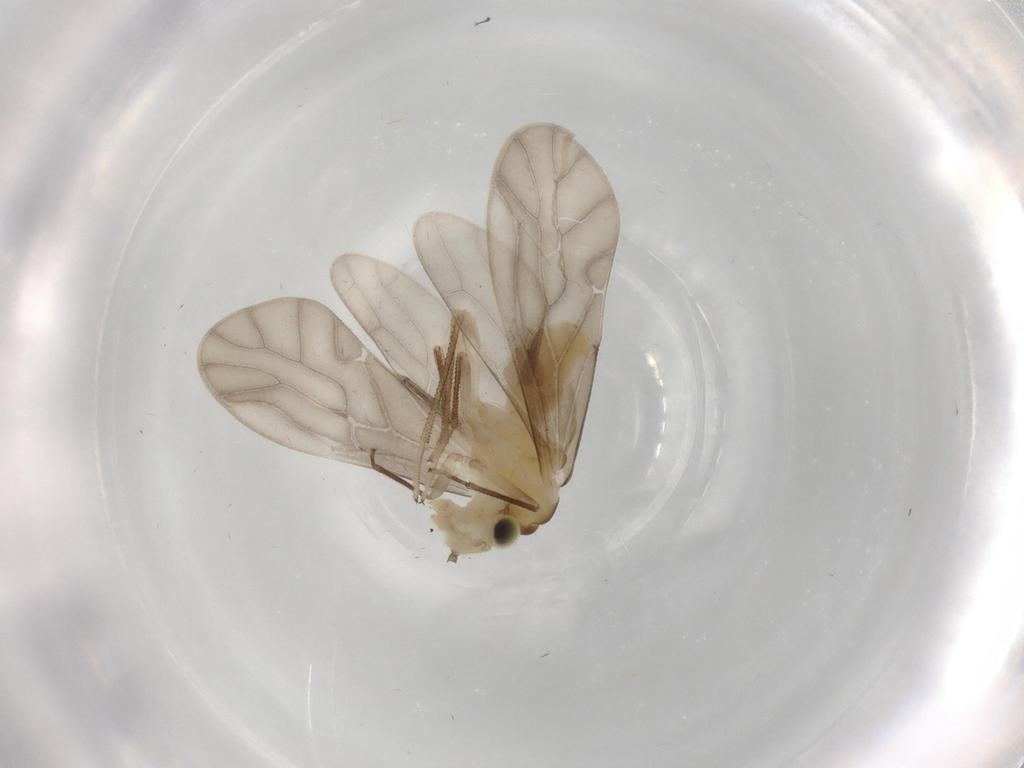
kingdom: Animalia
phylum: Arthropoda
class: Insecta
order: Psocodea
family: Caeciliusidae
